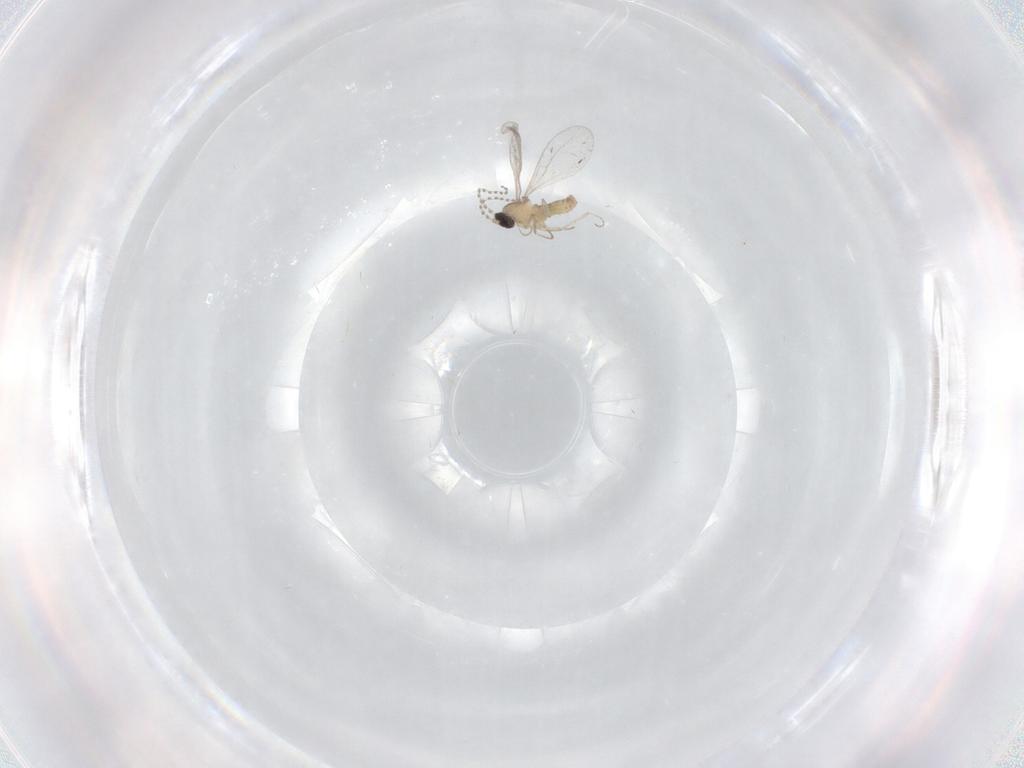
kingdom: Animalia
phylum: Arthropoda
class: Insecta
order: Diptera
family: Cecidomyiidae
